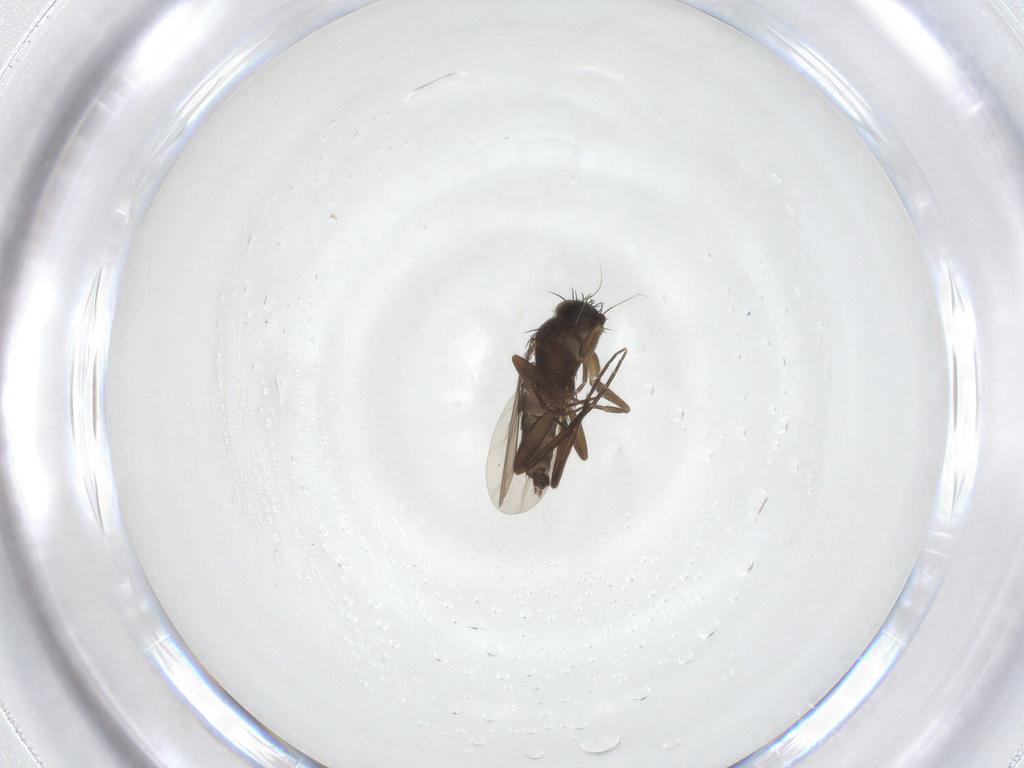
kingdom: Animalia
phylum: Arthropoda
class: Insecta
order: Diptera
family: Phoridae
